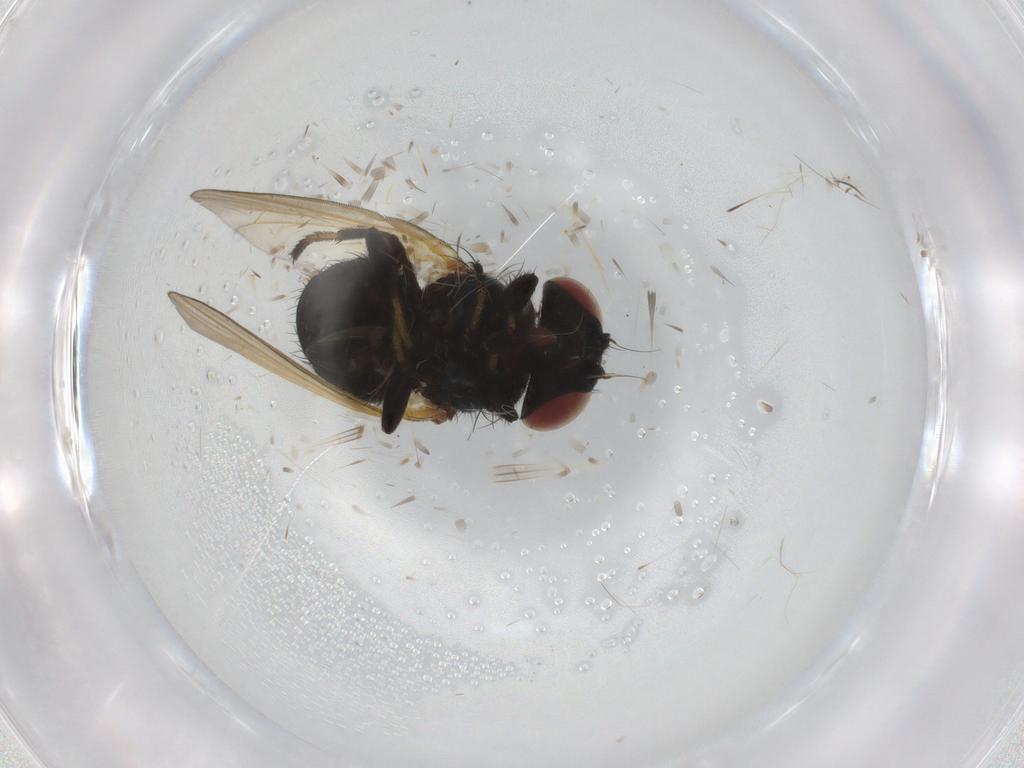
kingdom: Animalia
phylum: Arthropoda
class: Insecta
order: Diptera
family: Lonchaeidae
